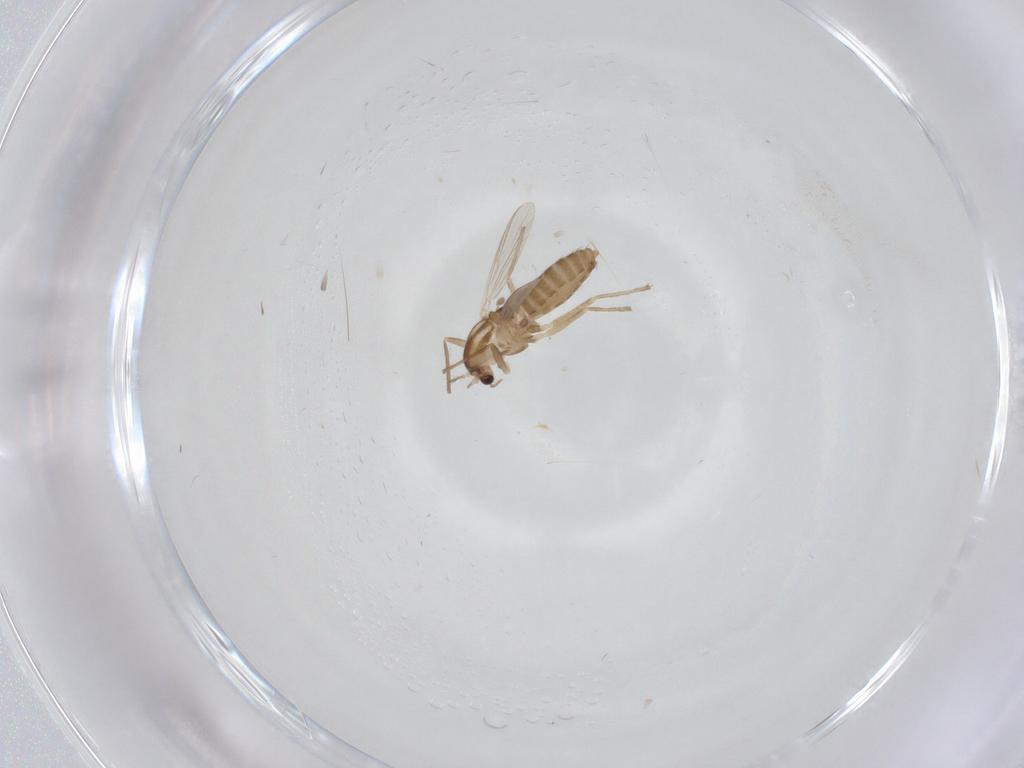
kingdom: Animalia
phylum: Arthropoda
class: Insecta
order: Diptera
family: Chironomidae
